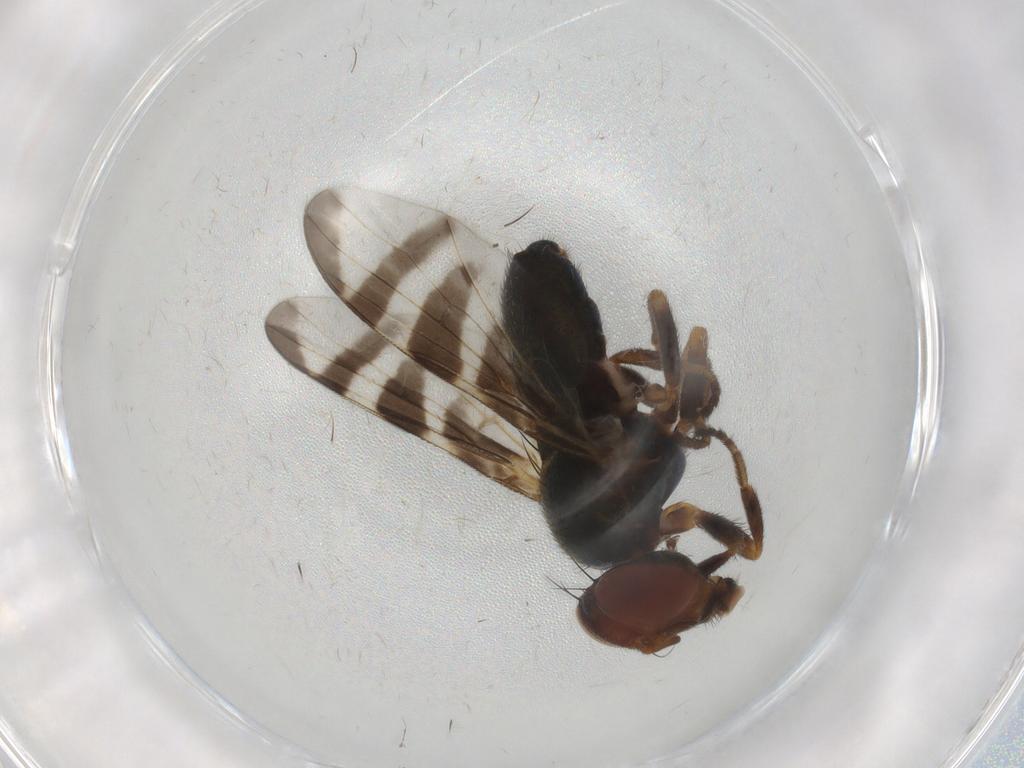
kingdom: Animalia
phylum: Arthropoda
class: Insecta
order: Diptera
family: Platystomatidae
